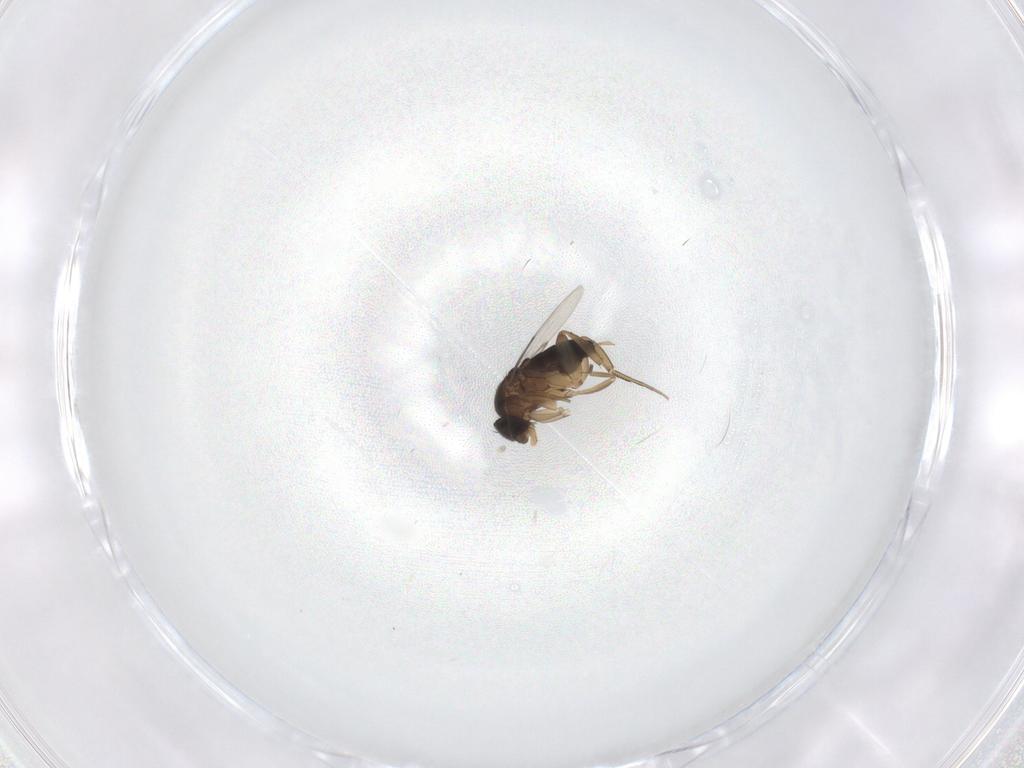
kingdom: Animalia
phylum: Arthropoda
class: Insecta
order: Diptera
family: Phoridae
